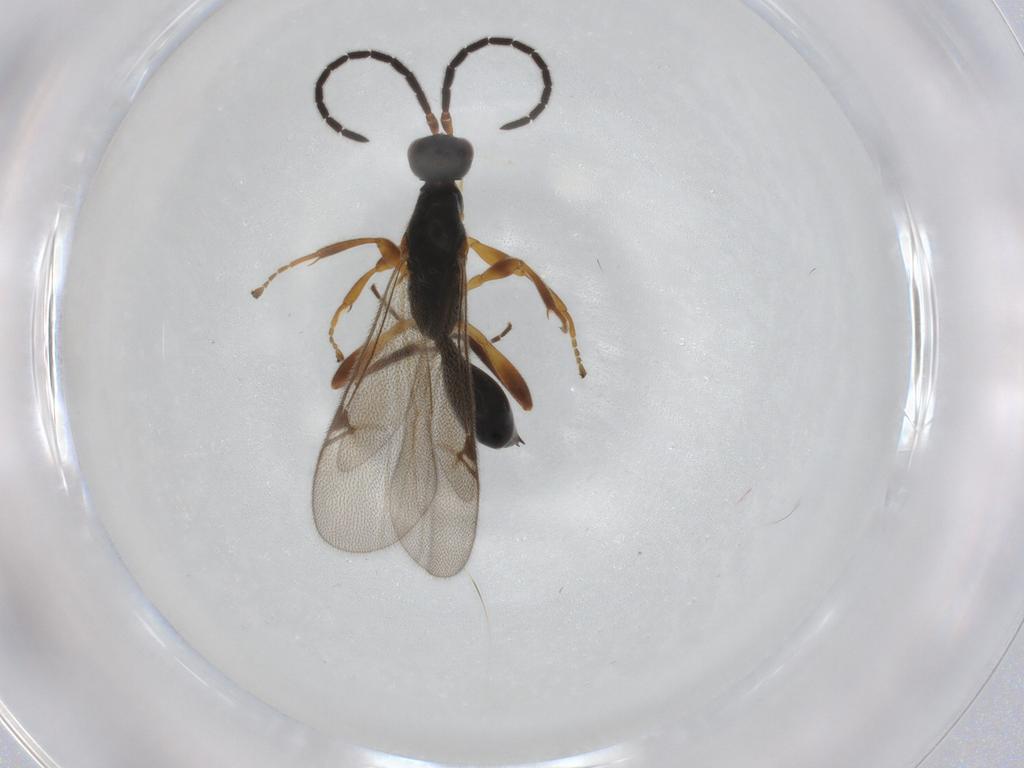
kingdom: Animalia
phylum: Arthropoda
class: Insecta
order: Hymenoptera
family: Proctotrupidae
